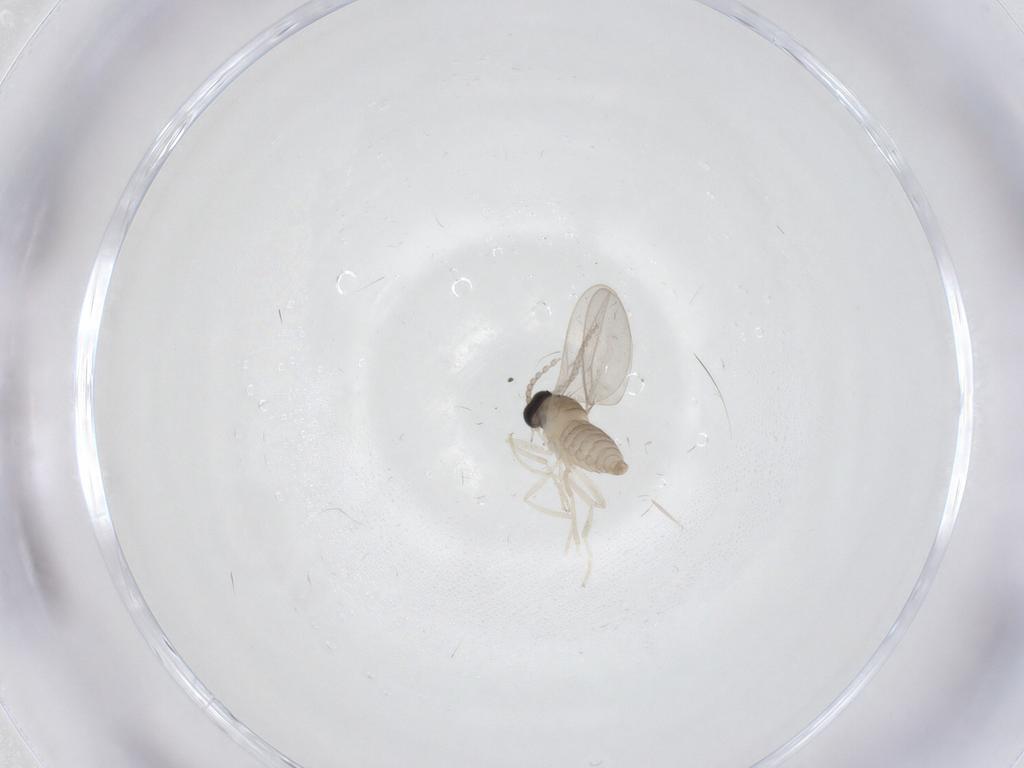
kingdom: Animalia
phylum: Arthropoda
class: Insecta
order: Diptera
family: Cecidomyiidae
